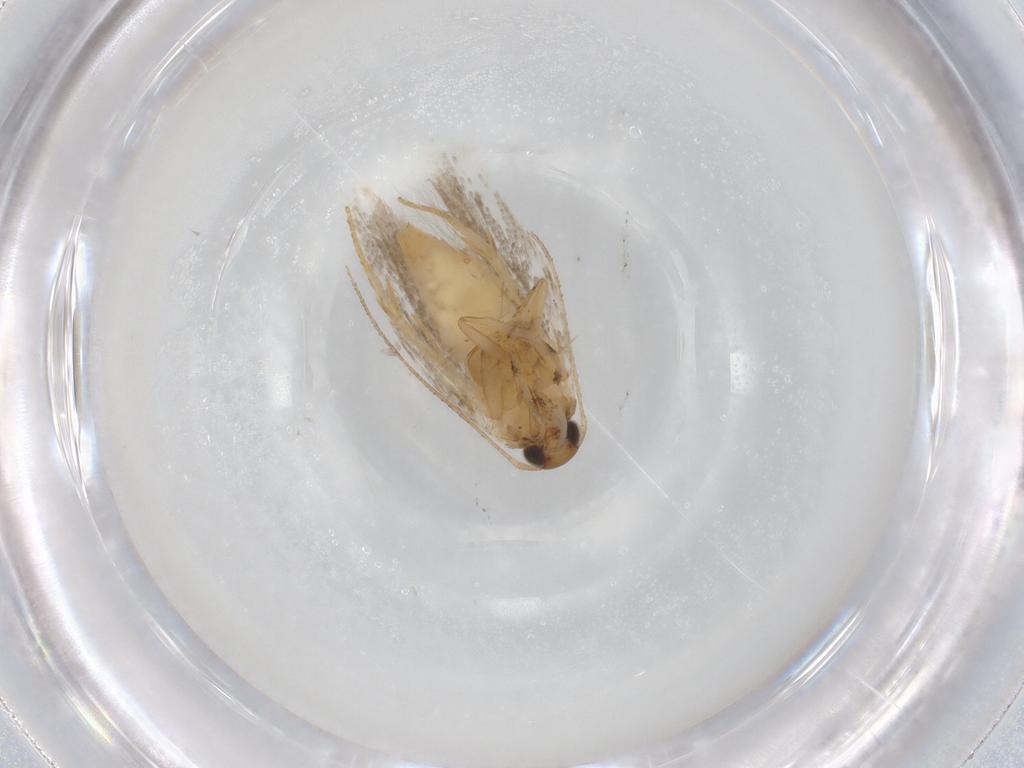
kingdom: Animalia
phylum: Arthropoda
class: Insecta
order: Lepidoptera
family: Gelechiidae
